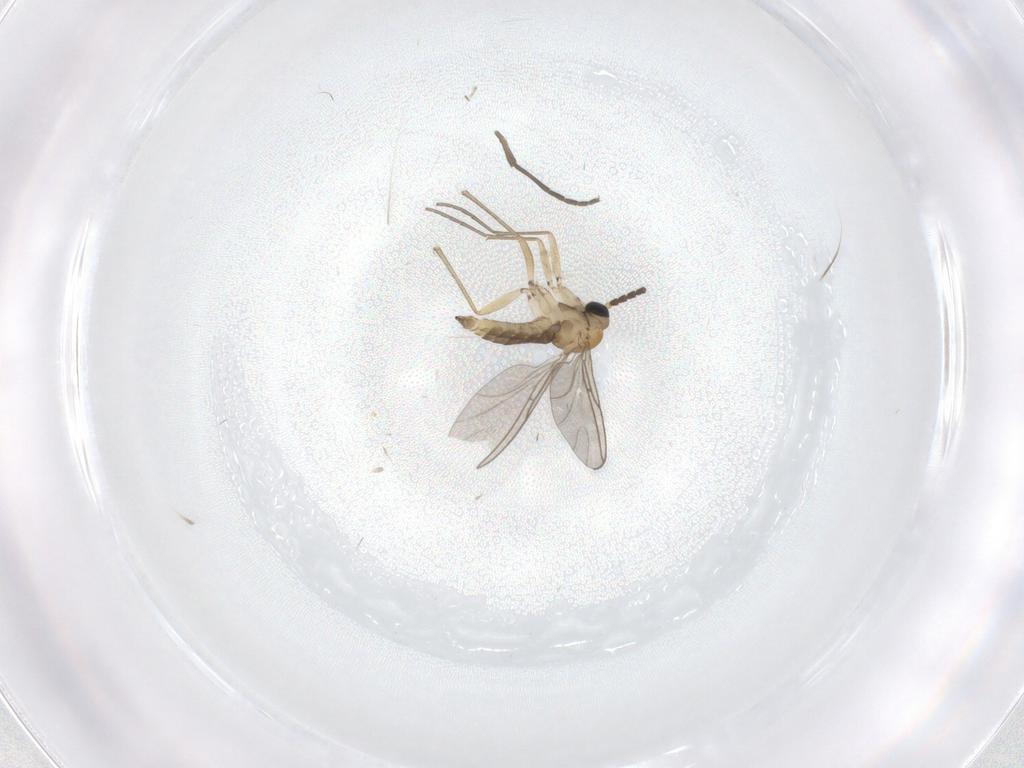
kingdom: Animalia
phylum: Arthropoda
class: Insecta
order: Diptera
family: Sciaridae
